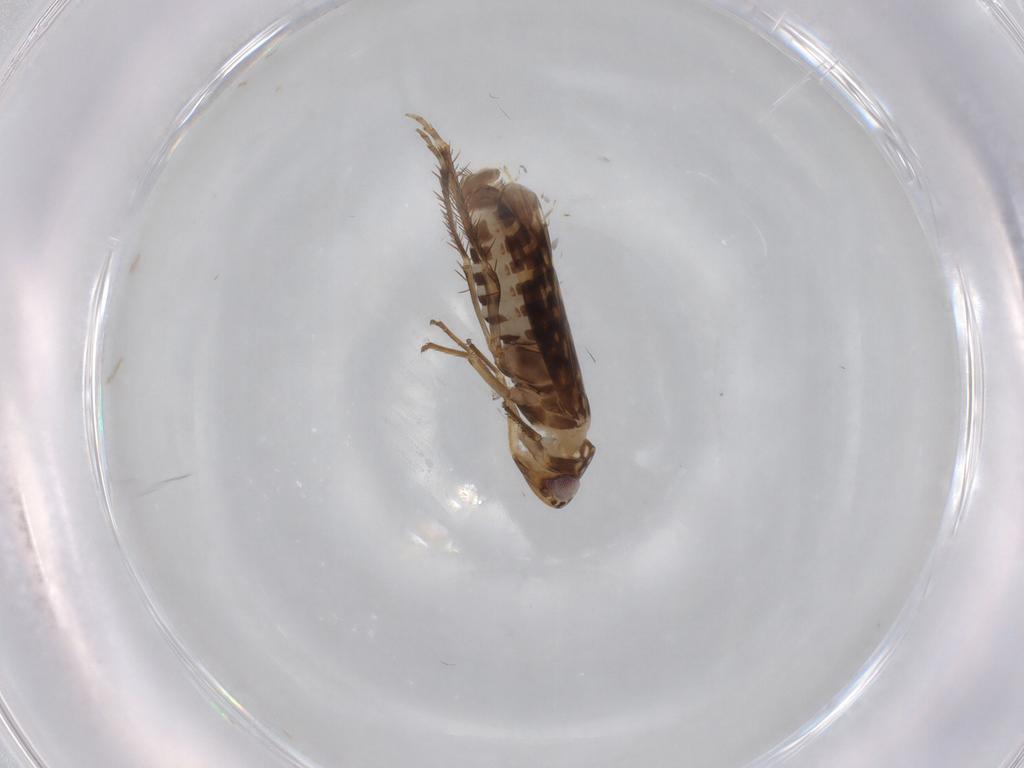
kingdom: Animalia
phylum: Arthropoda
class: Insecta
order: Hemiptera
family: Cicadellidae
